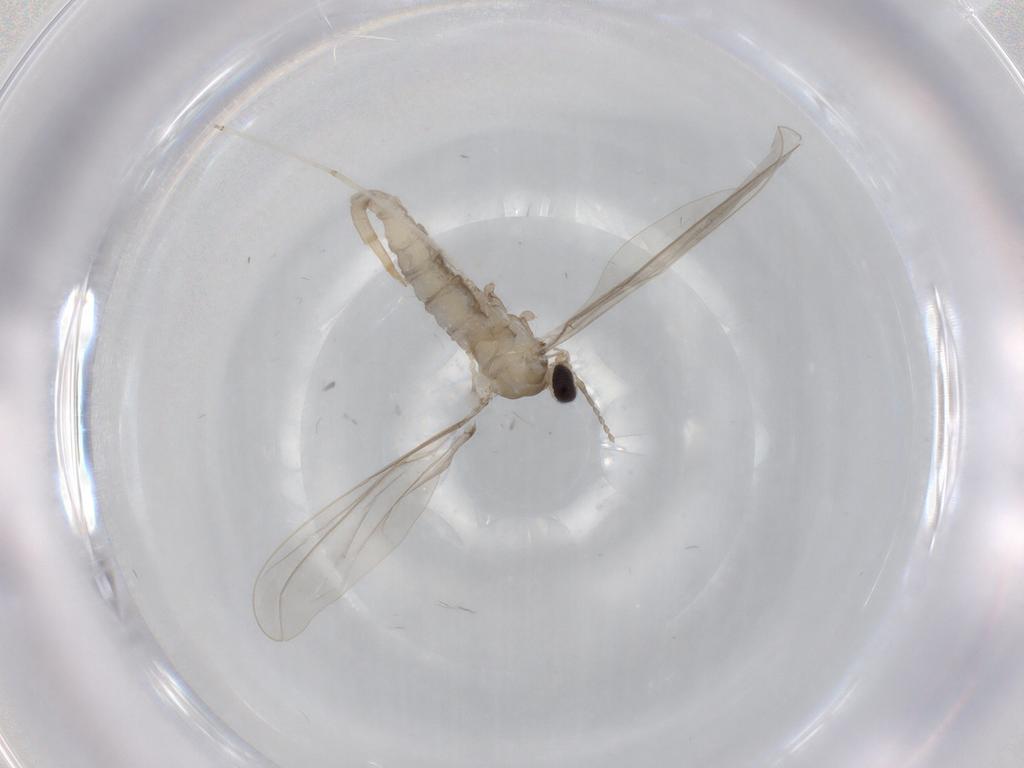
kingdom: Animalia
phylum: Arthropoda
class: Insecta
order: Diptera
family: Cecidomyiidae
